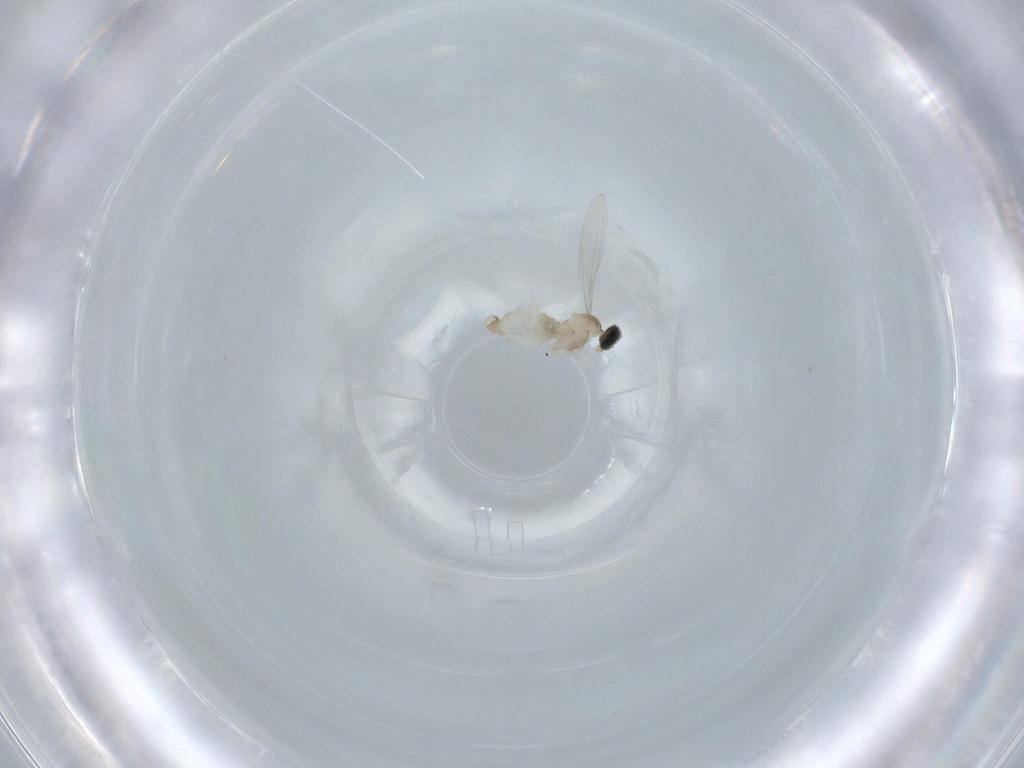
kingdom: Animalia
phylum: Arthropoda
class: Insecta
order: Diptera
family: Cecidomyiidae
